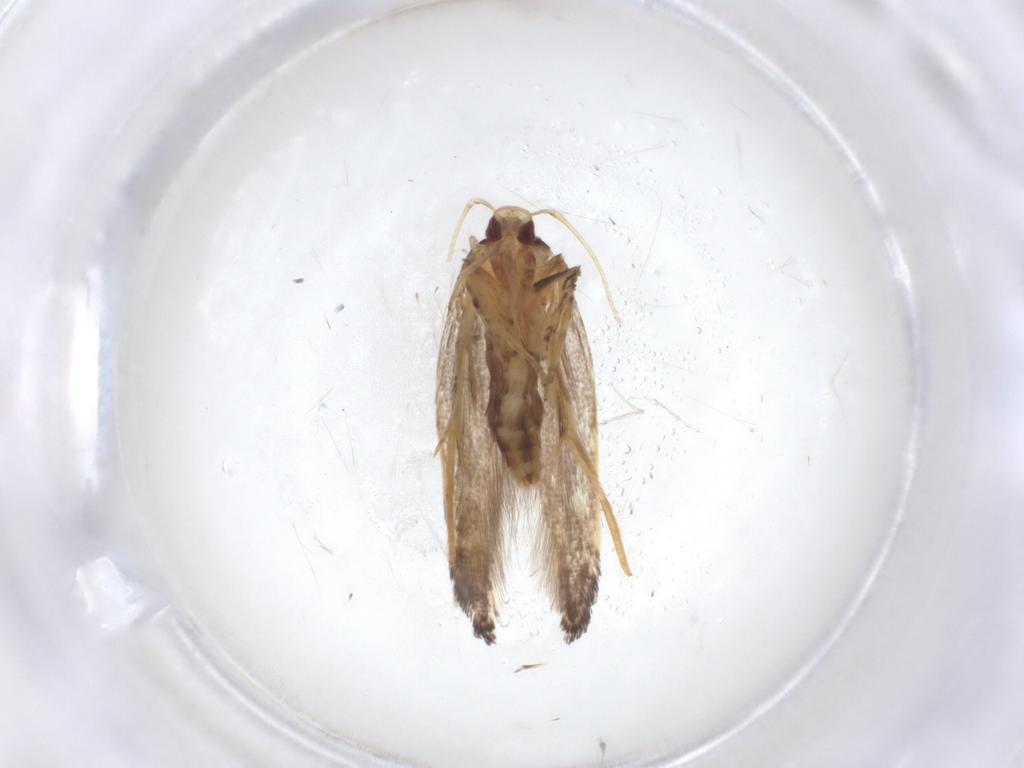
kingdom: Animalia
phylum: Arthropoda
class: Insecta
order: Lepidoptera
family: Cosmopterigidae
